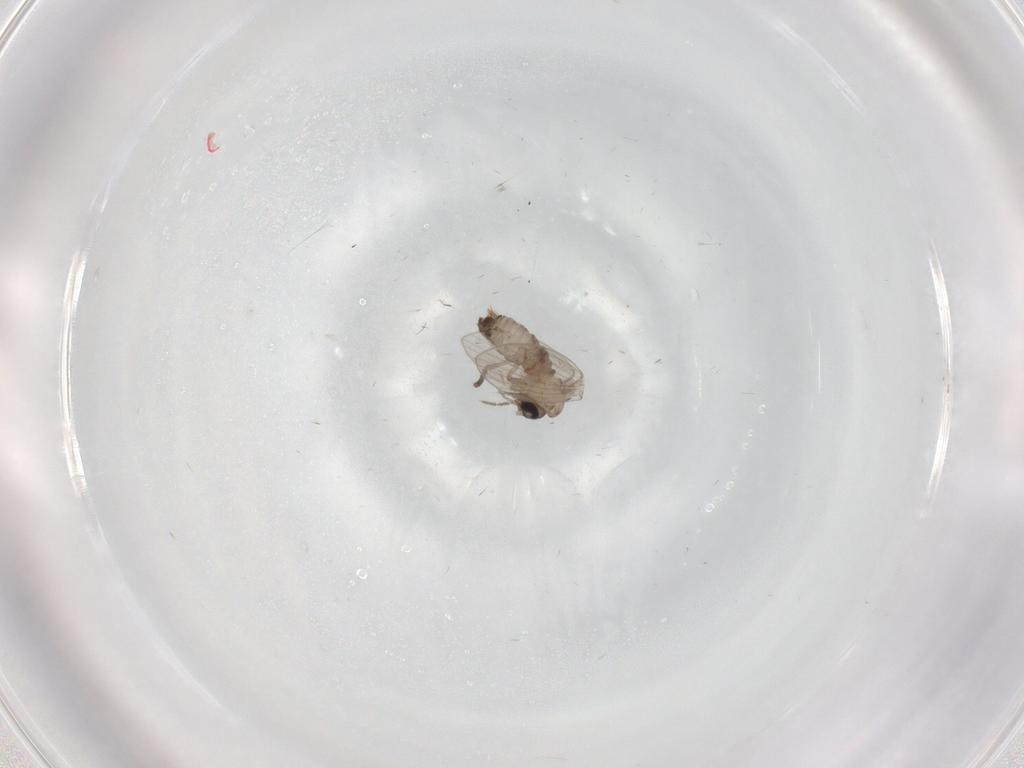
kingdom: Animalia
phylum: Arthropoda
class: Insecta
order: Diptera
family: Psychodidae
